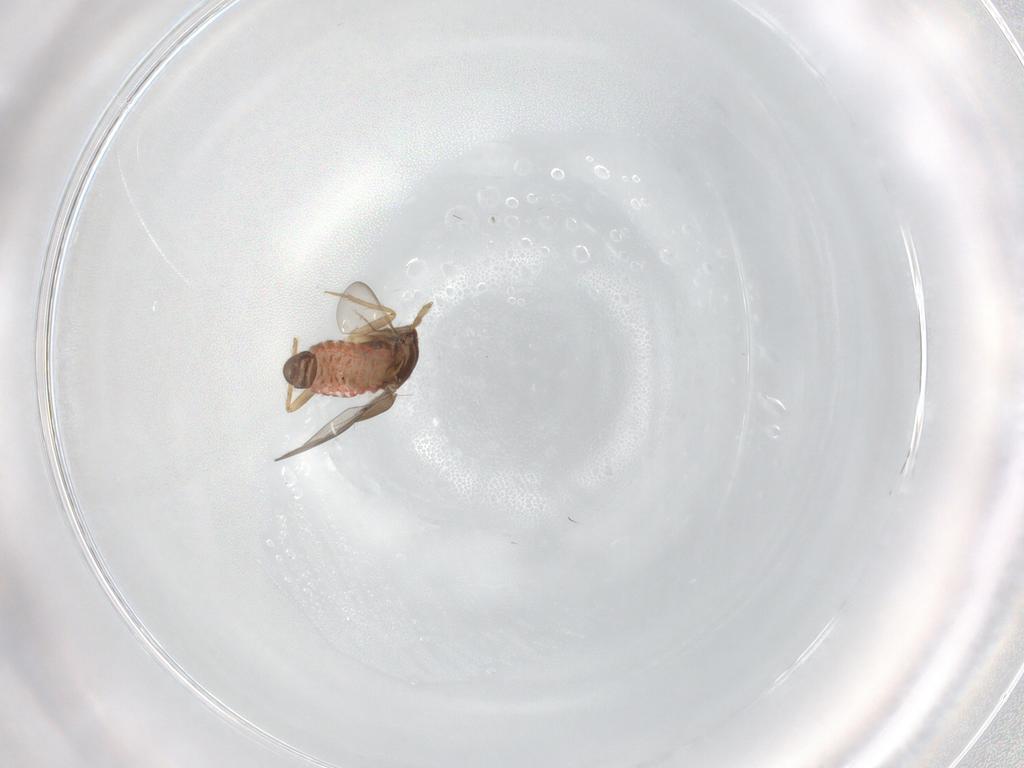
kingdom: Animalia
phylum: Arthropoda
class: Insecta
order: Hemiptera
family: Ceratocombidae
